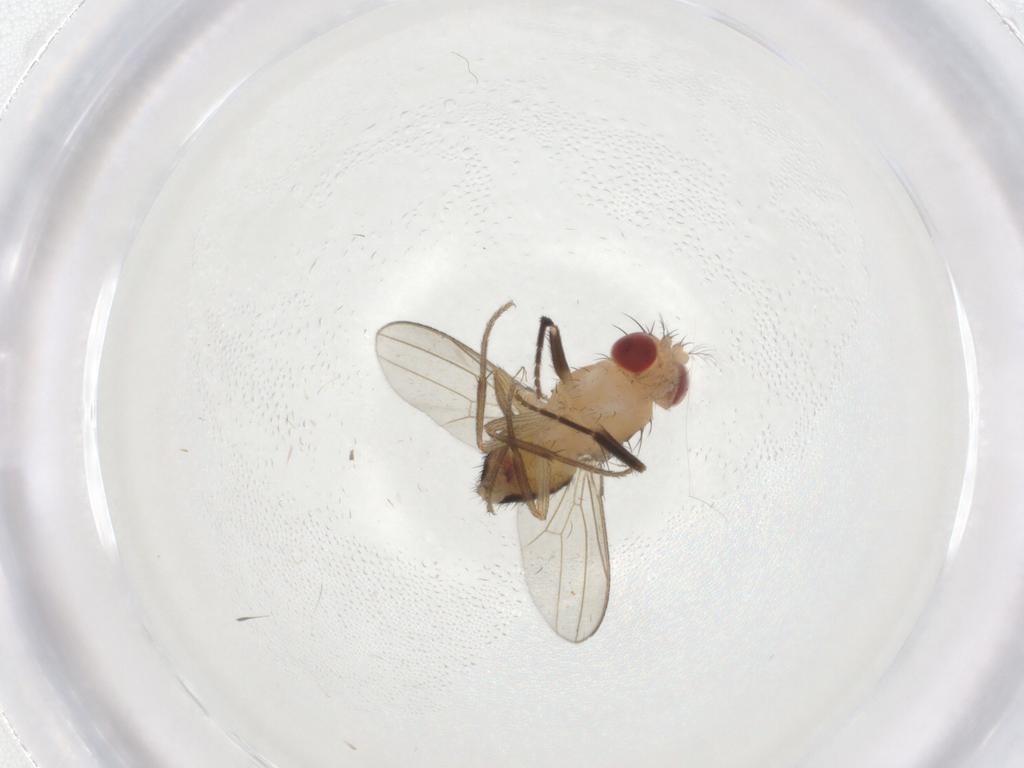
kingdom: Animalia
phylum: Arthropoda
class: Insecta
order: Diptera
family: Drosophilidae
